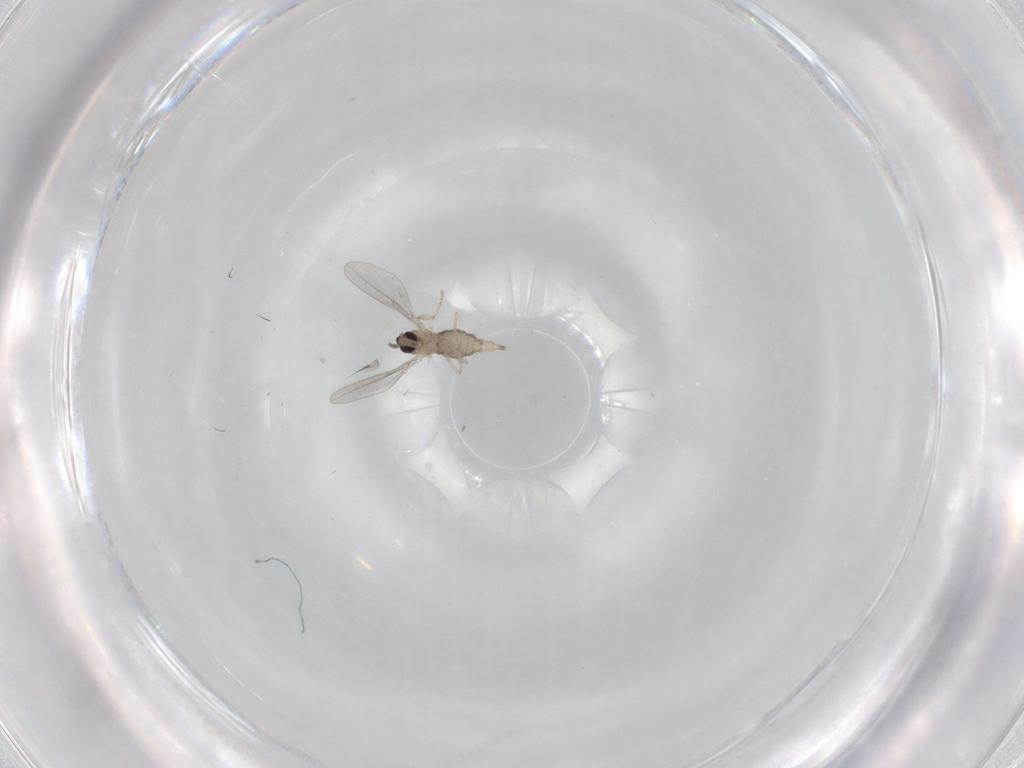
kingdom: Animalia
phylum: Arthropoda
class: Insecta
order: Diptera
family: Cecidomyiidae
